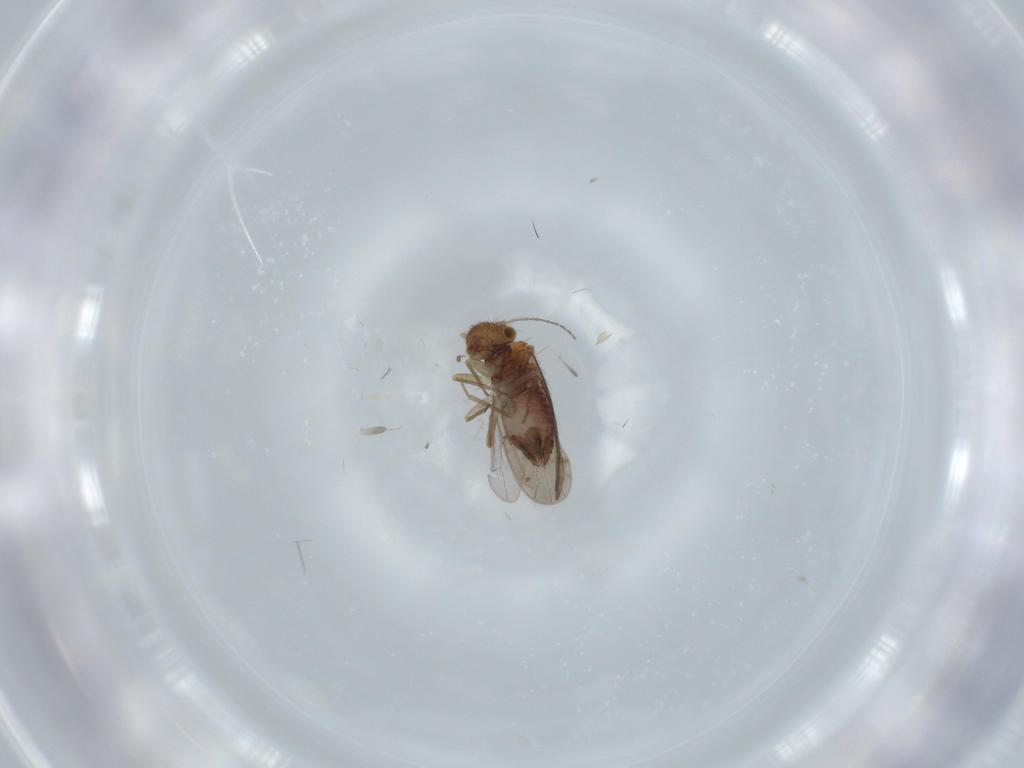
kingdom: Animalia
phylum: Arthropoda
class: Insecta
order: Psocodea
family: Ectopsocidae
